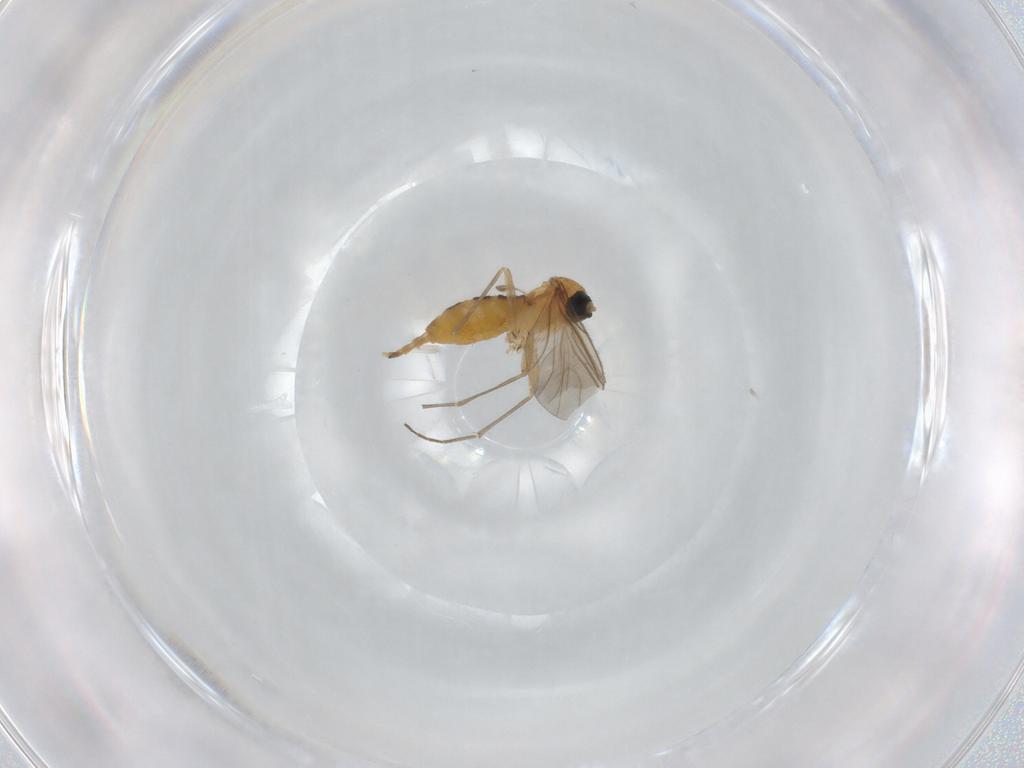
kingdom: Animalia
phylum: Arthropoda
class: Insecta
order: Diptera
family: Sciaridae
